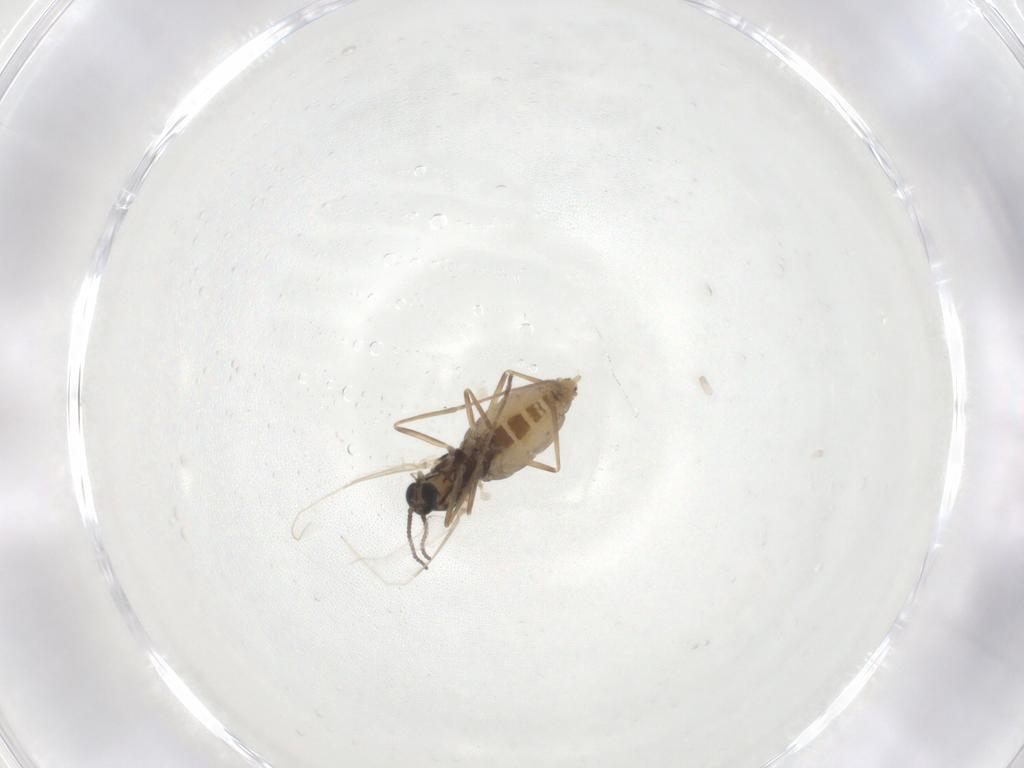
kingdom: Animalia
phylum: Arthropoda
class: Insecta
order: Diptera
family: Cecidomyiidae
